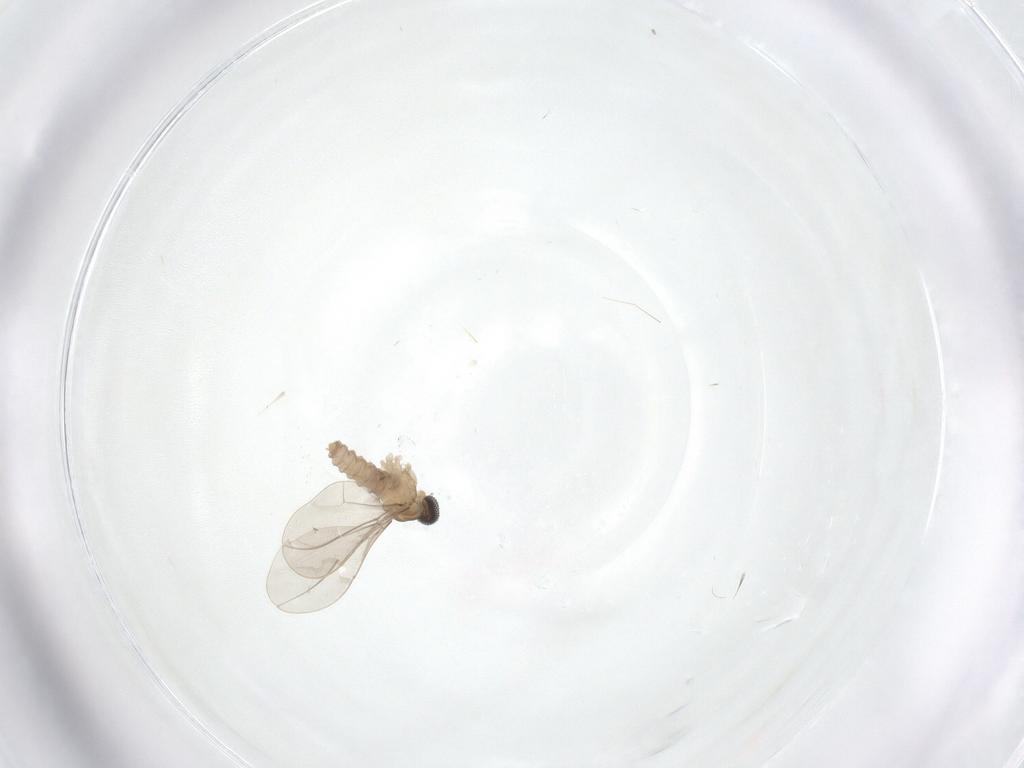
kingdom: Animalia
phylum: Arthropoda
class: Insecta
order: Diptera
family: Cecidomyiidae
